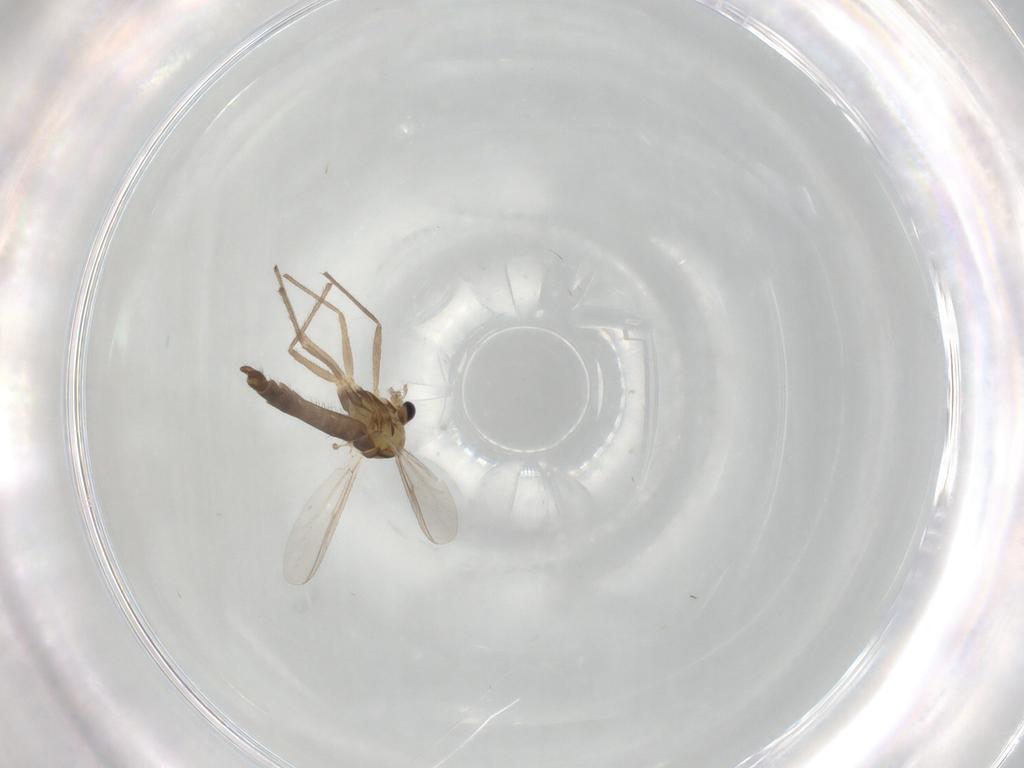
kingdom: Animalia
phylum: Arthropoda
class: Insecta
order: Diptera
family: Chironomidae
